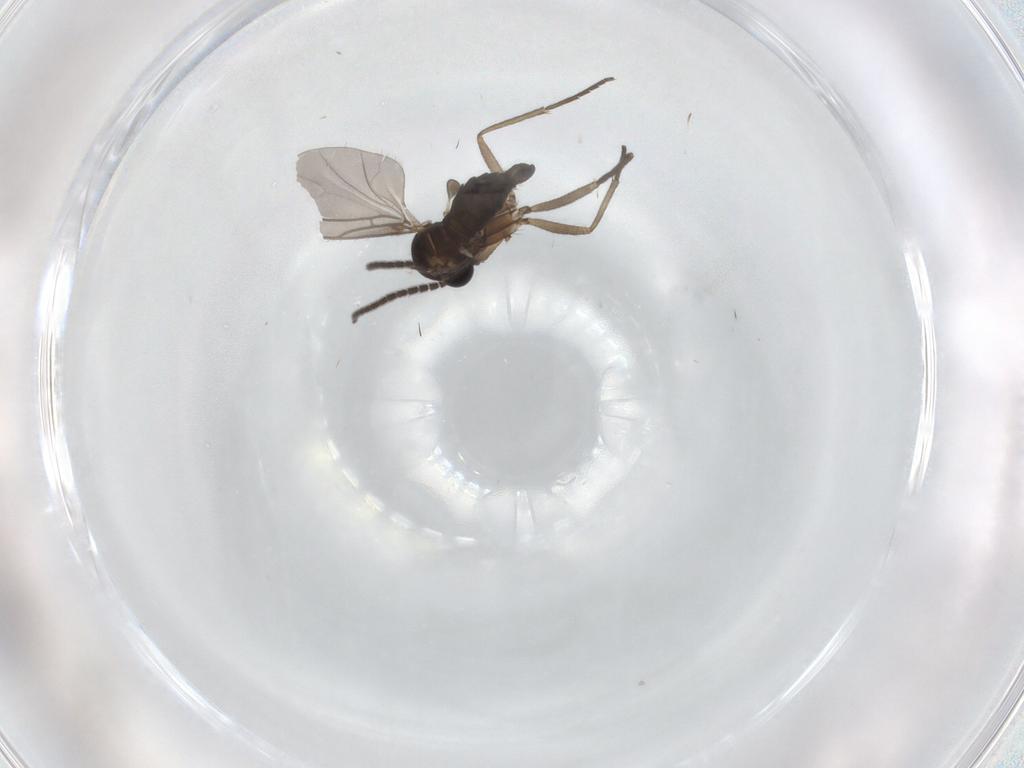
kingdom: Animalia
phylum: Arthropoda
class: Insecta
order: Diptera
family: Sciaridae
